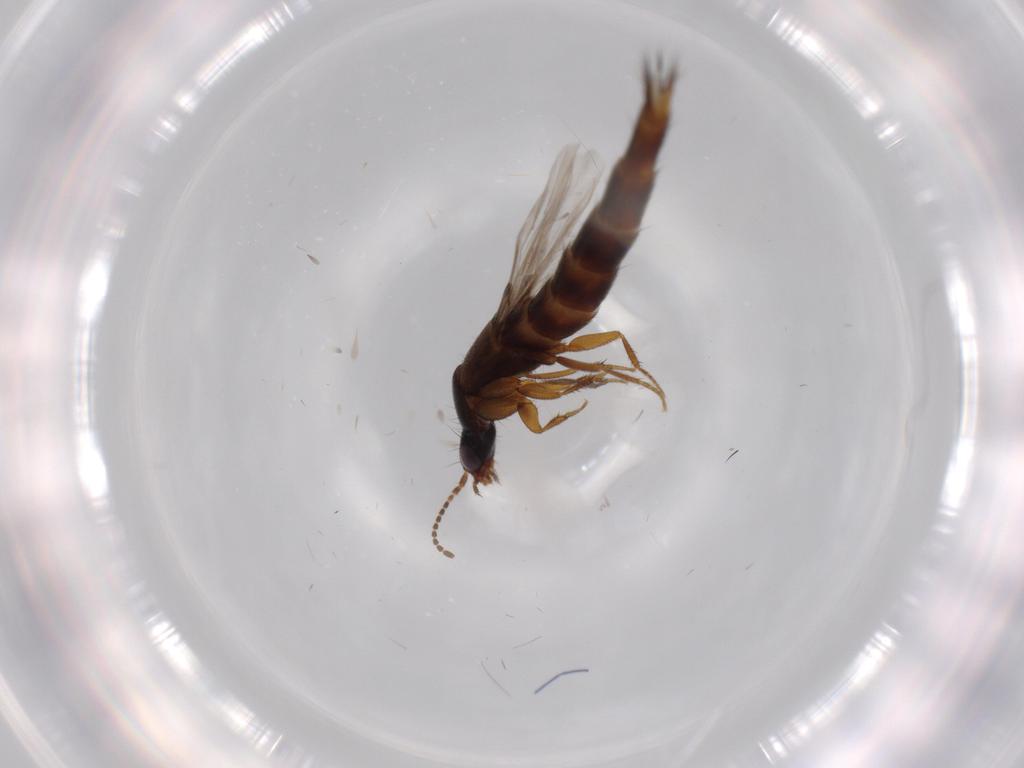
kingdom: Animalia
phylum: Arthropoda
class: Insecta
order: Coleoptera
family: Staphylinidae
